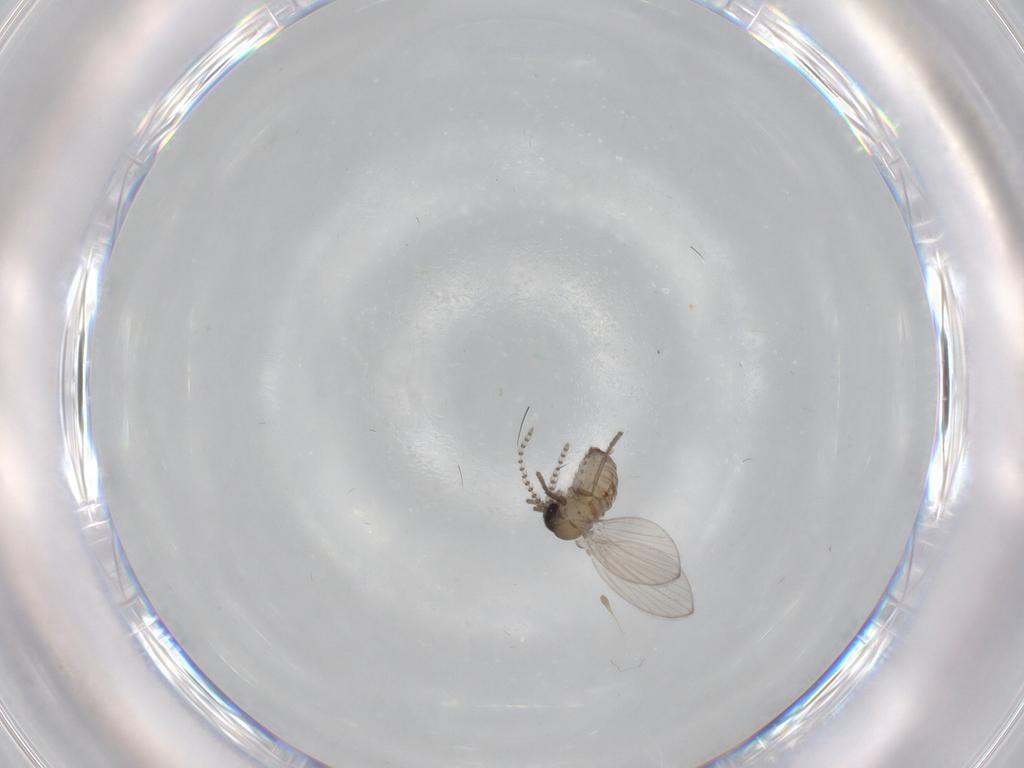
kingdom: Animalia
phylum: Arthropoda
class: Insecta
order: Diptera
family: Psychodidae
